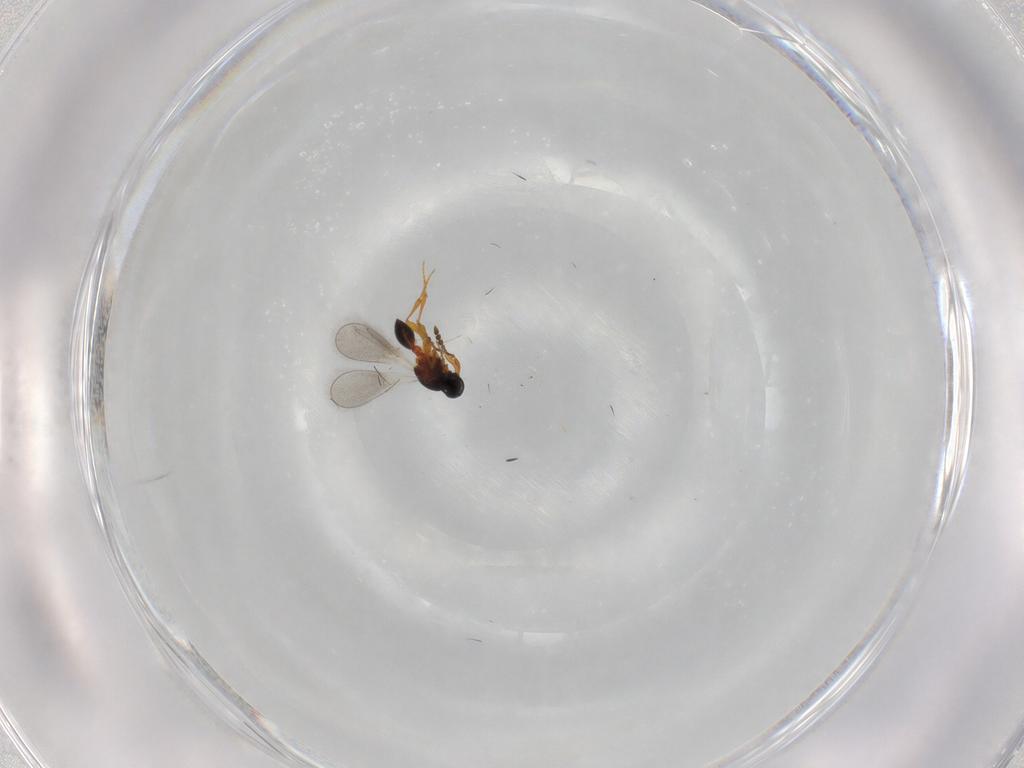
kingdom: Animalia
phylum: Arthropoda
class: Insecta
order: Hymenoptera
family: Platygastridae
